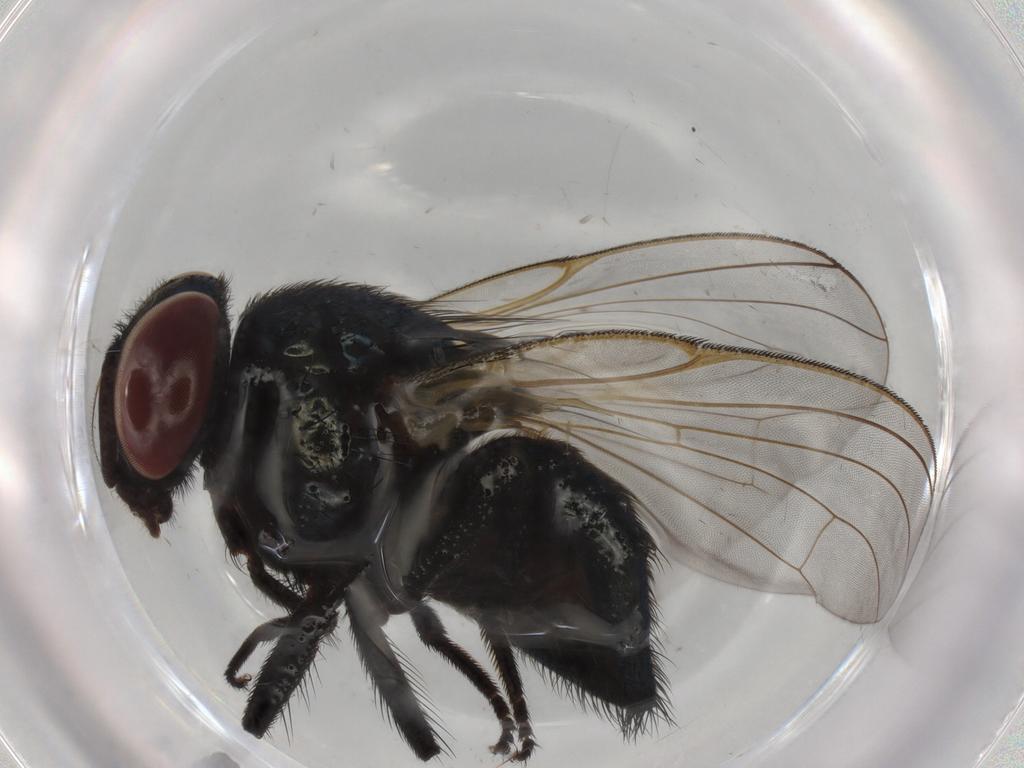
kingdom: Animalia
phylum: Arthropoda
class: Insecta
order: Diptera
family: Lonchaeidae
